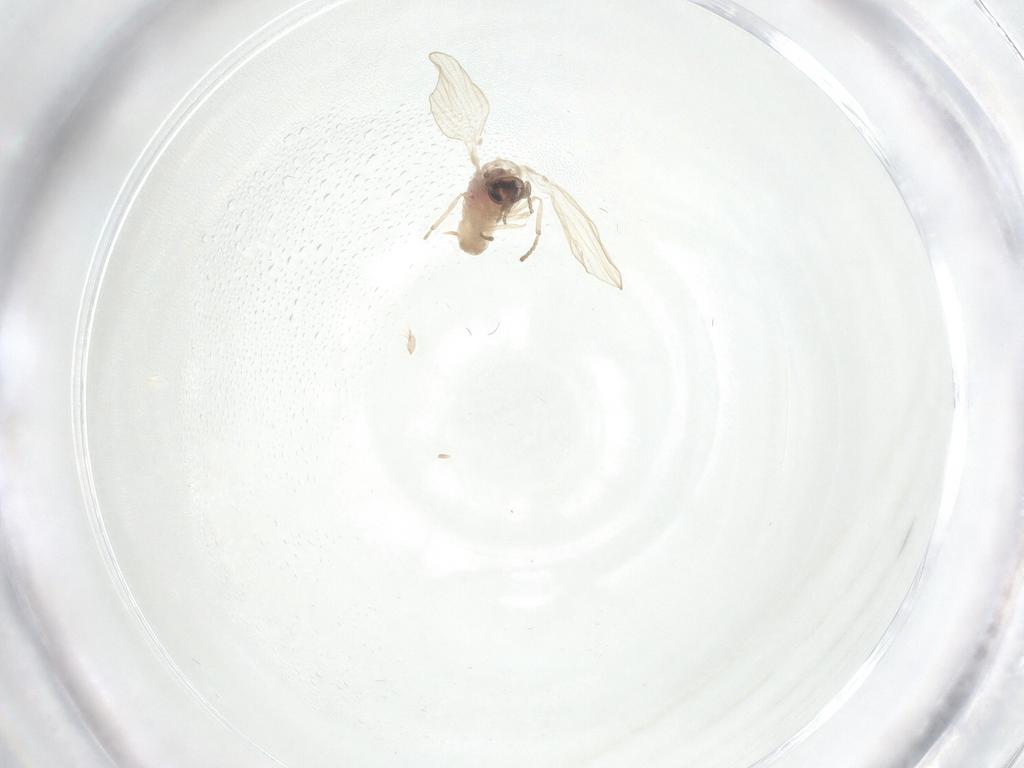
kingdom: Animalia
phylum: Arthropoda
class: Insecta
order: Diptera
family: Psychodidae
